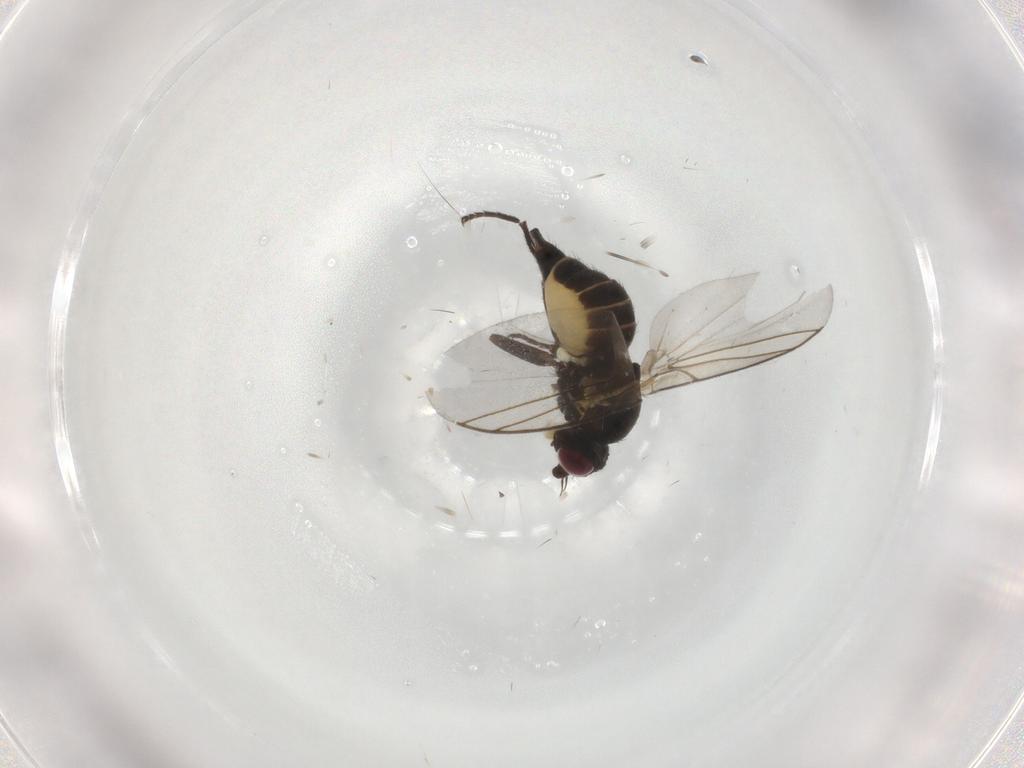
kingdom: Animalia
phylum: Arthropoda
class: Insecta
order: Diptera
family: Agromyzidae
